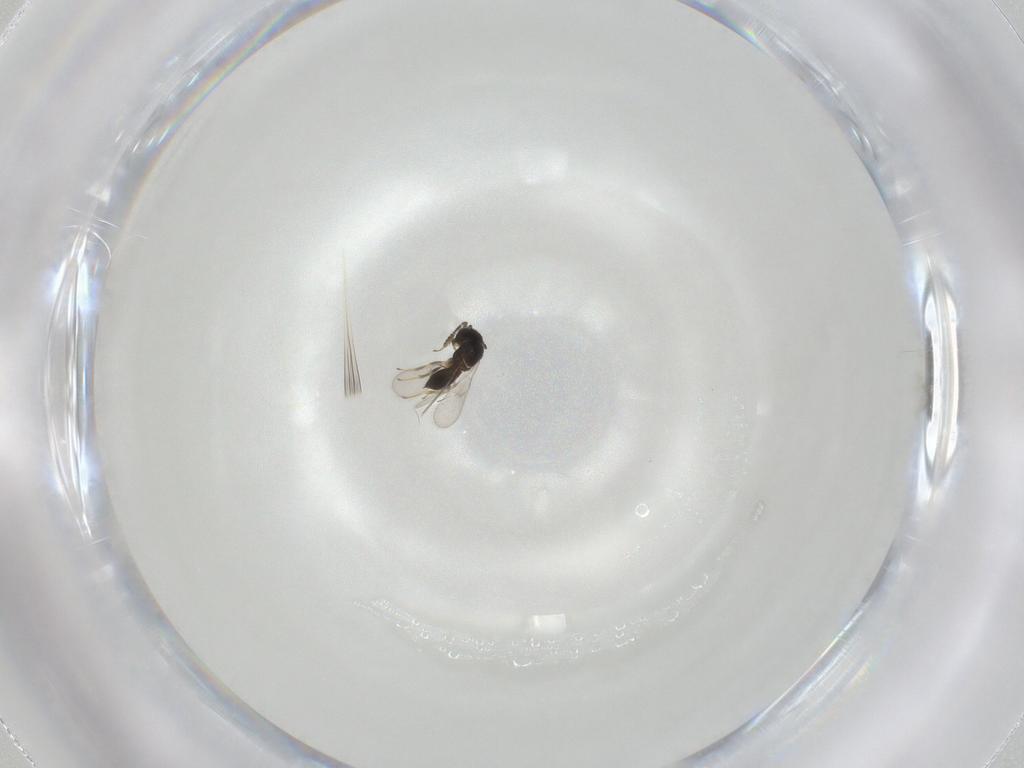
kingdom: Animalia
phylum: Arthropoda
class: Insecta
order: Hymenoptera
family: Scelionidae
